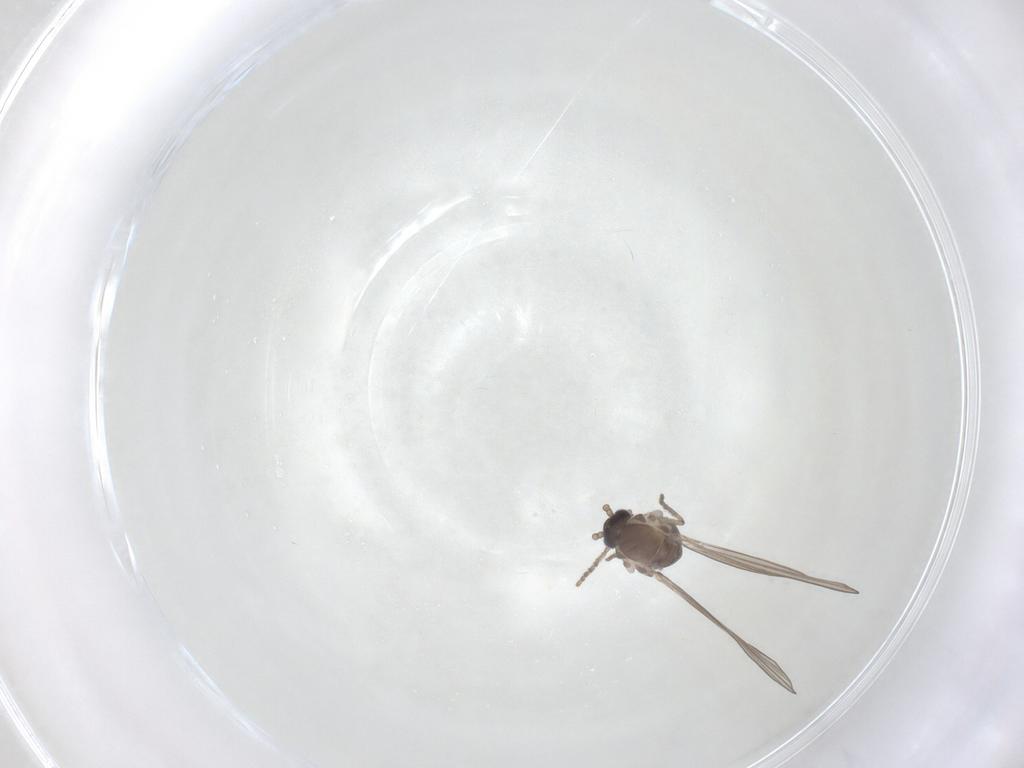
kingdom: Animalia
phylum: Arthropoda
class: Insecta
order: Diptera
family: Psychodidae
